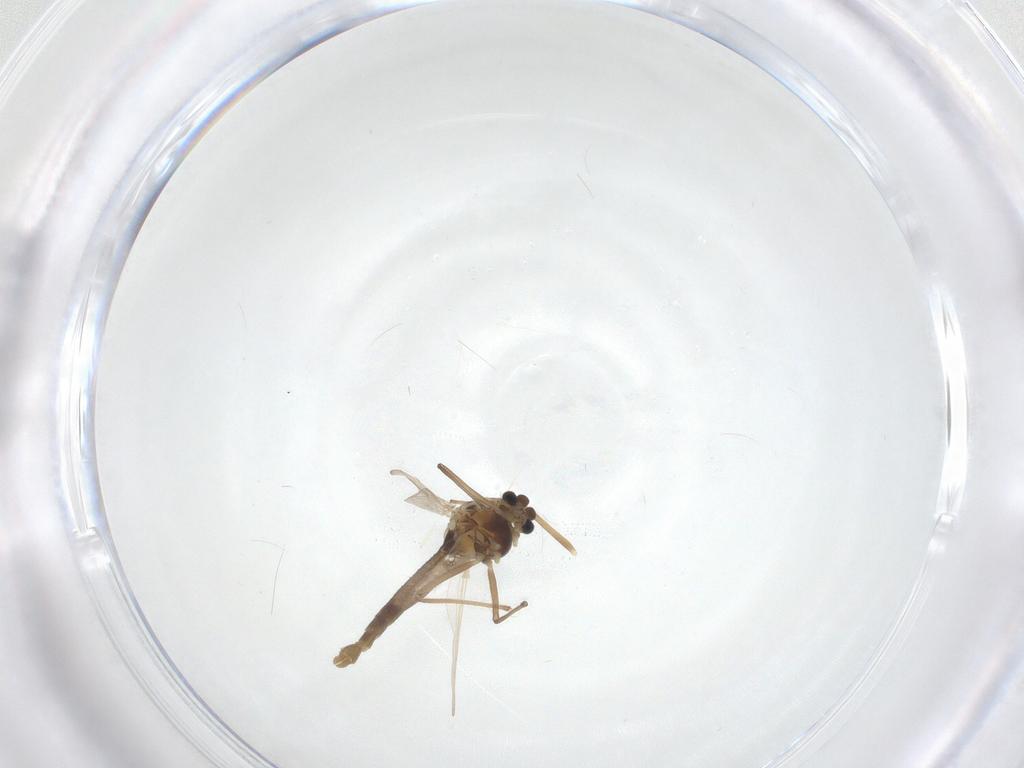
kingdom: Animalia
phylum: Arthropoda
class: Insecta
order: Diptera
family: Chironomidae
